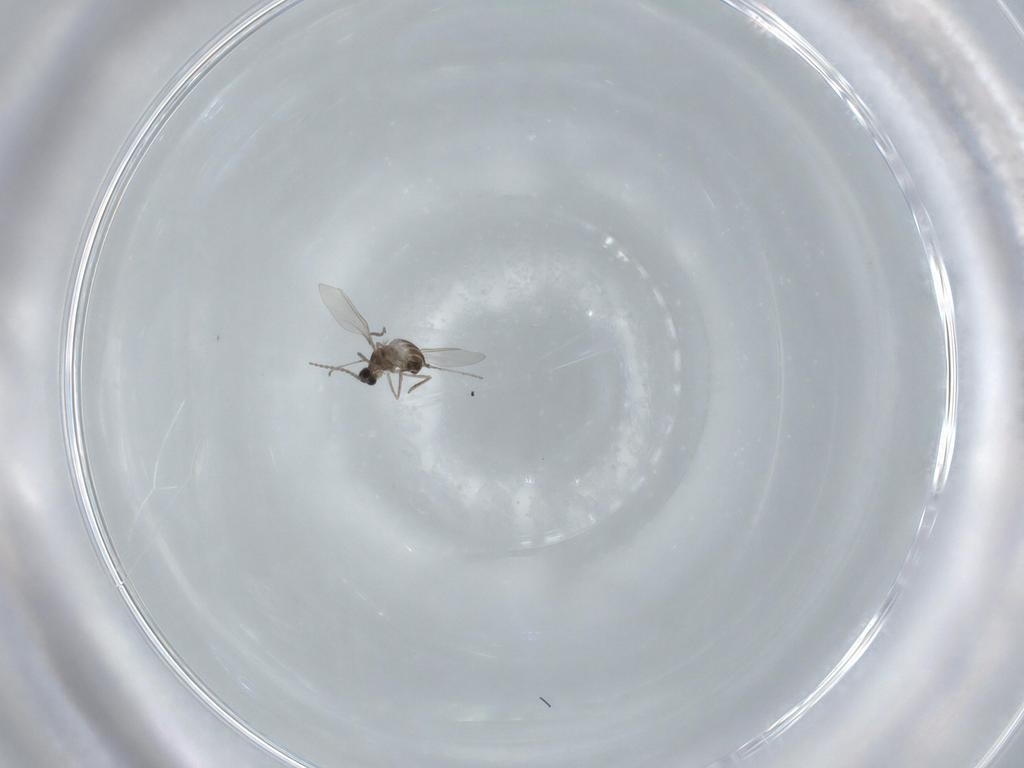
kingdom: Animalia
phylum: Arthropoda
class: Insecta
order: Diptera
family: Cecidomyiidae
